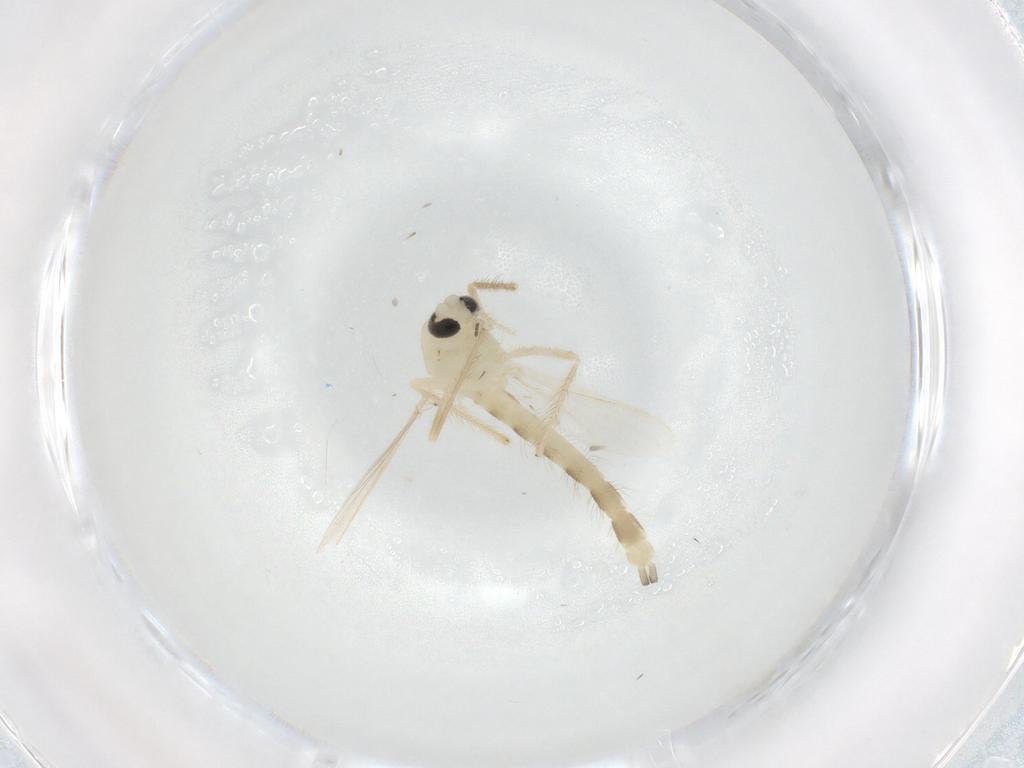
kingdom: Animalia
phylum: Arthropoda
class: Insecta
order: Diptera
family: Chironomidae
